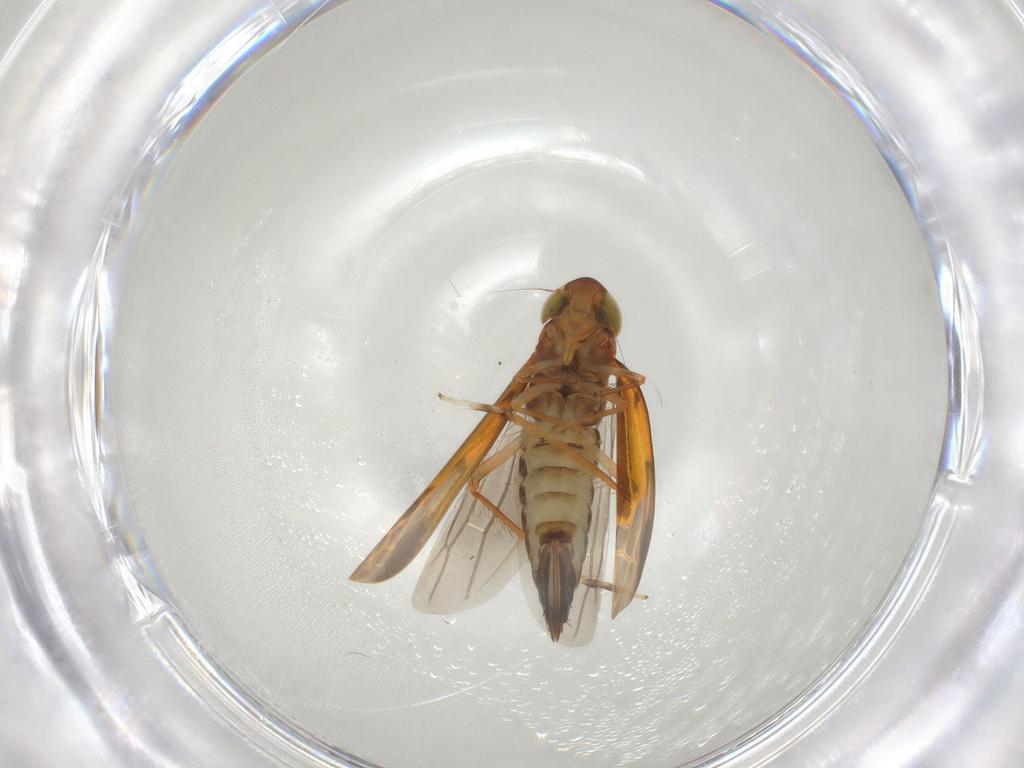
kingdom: Animalia
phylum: Arthropoda
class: Insecta
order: Hemiptera
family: Cicadellidae
